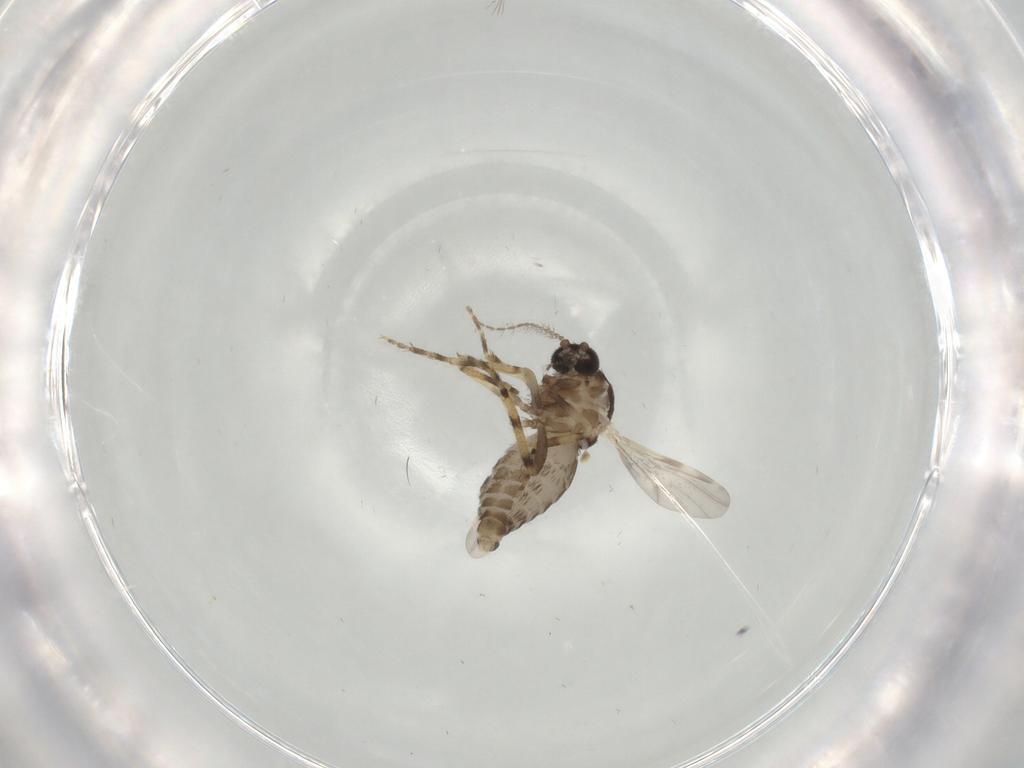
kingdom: Animalia
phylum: Arthropoda
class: Insecta
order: Diptera
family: Ceratopogonidae
